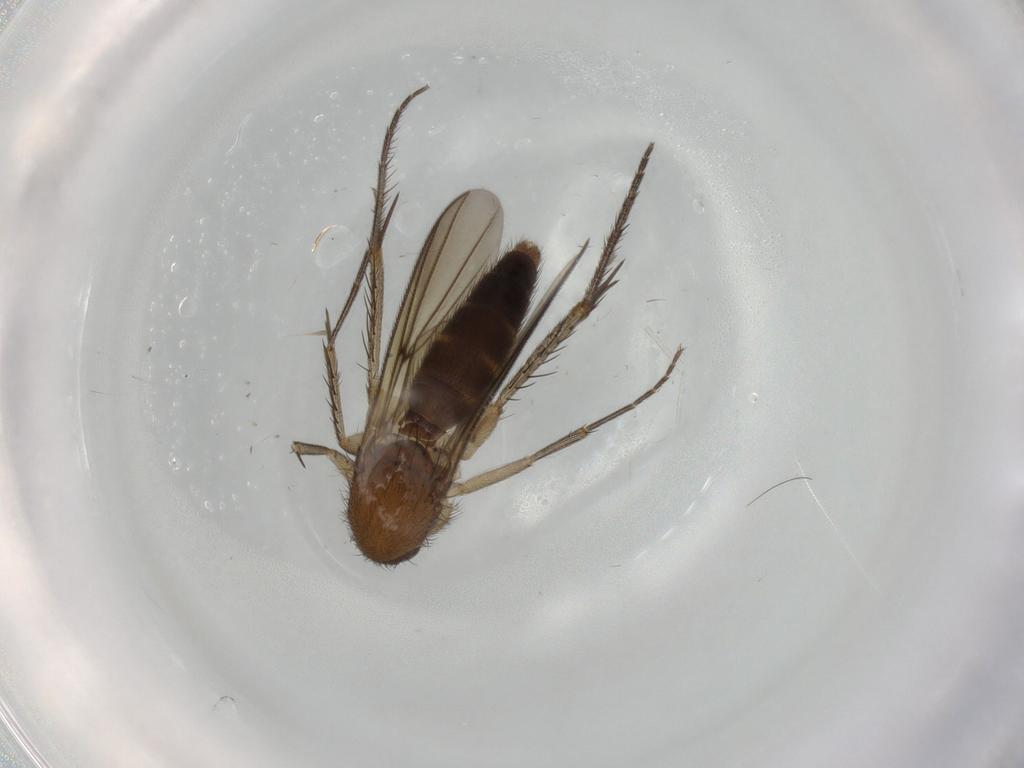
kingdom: Animalia
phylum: Arthropoda
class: Insecta
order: Diptera
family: Mycetophilidae
